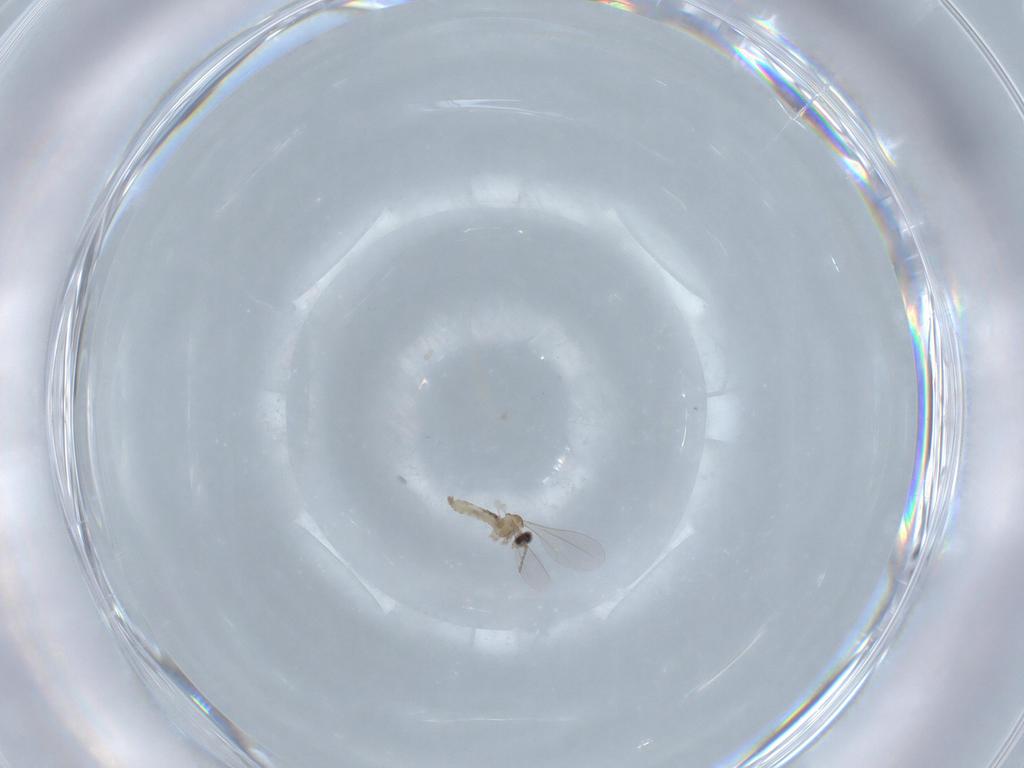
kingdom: Animalia
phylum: Arthropoda
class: Insecta
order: Diptera
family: Cecidomyiidae
